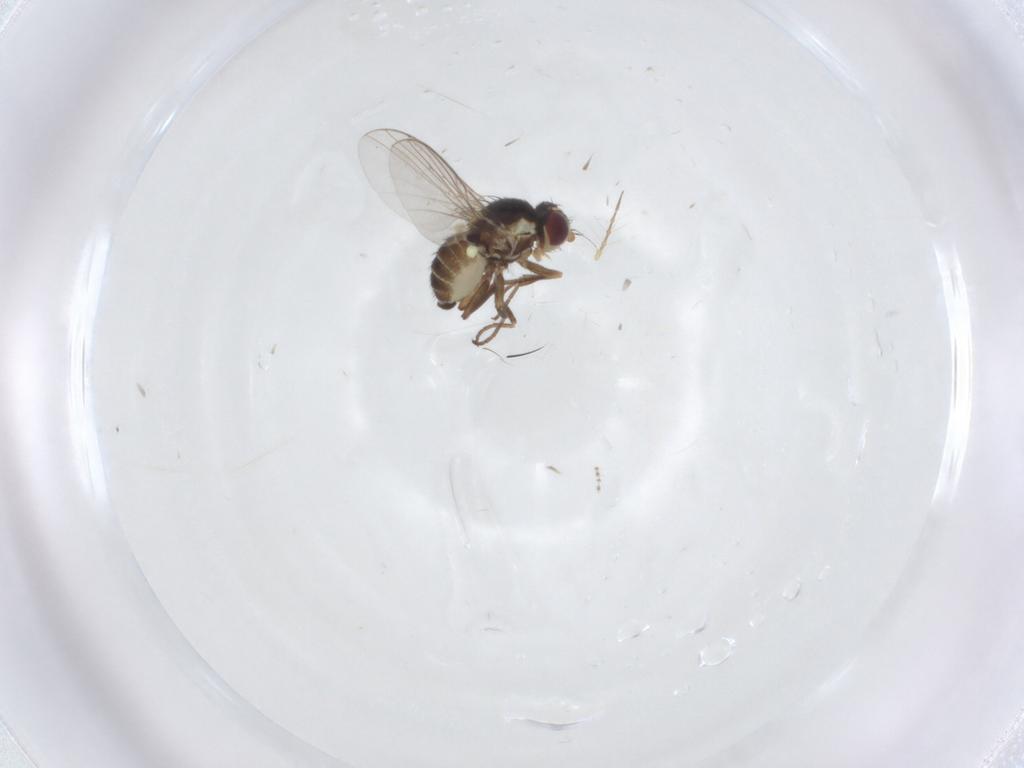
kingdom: Animalia
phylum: Arthropoda
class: Insecta
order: Diptera
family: Agromyzidae
